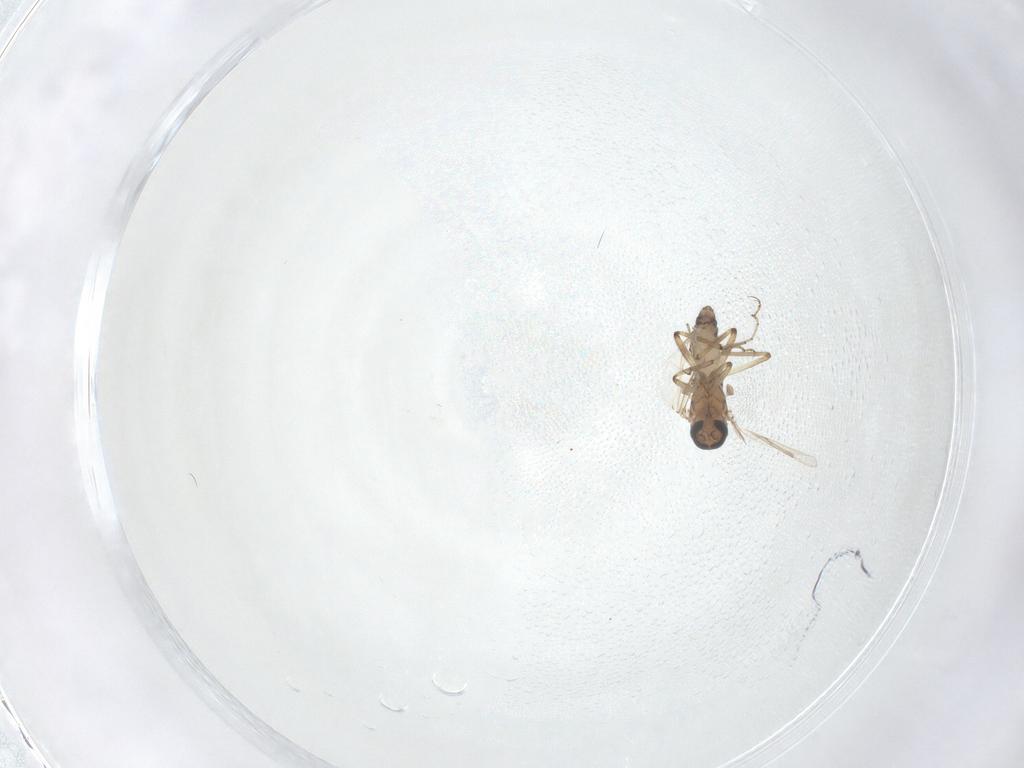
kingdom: Animalia
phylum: Arthropoda
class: Insecta
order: Diptera
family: Ceratopogonidae
